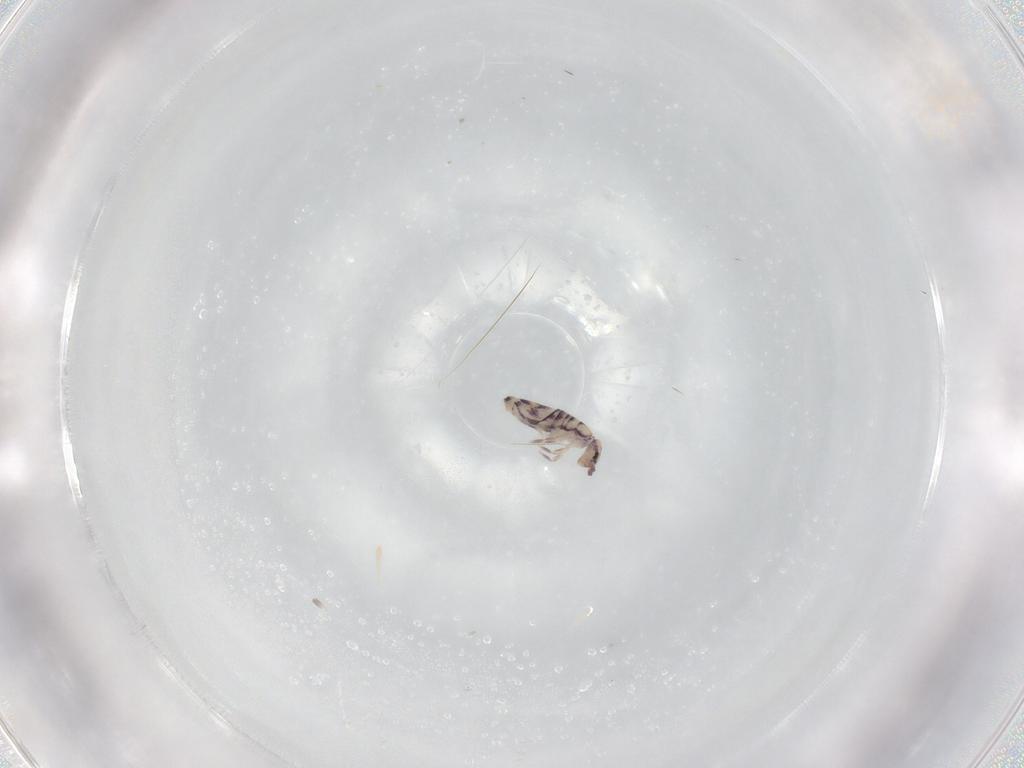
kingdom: Animalia
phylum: Arthropoda
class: Collembola
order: Entomobryomorpha
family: Entomobryidae
